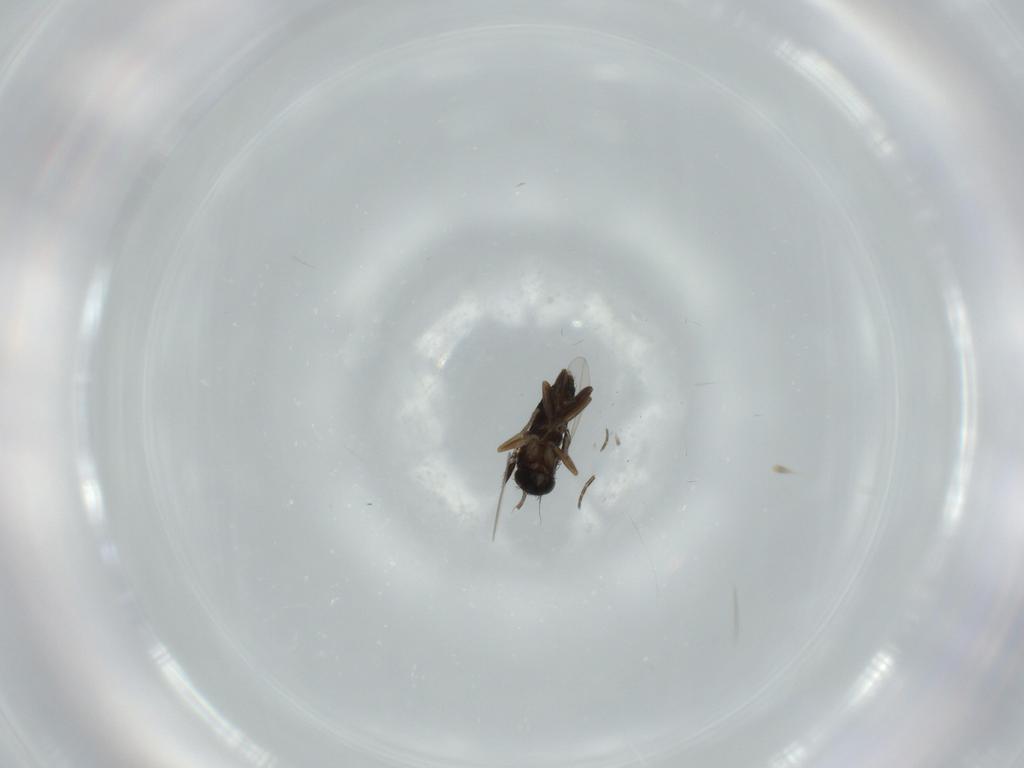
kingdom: Animalia
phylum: Arthropoda
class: Insecta
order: Diptera
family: Phoridae
